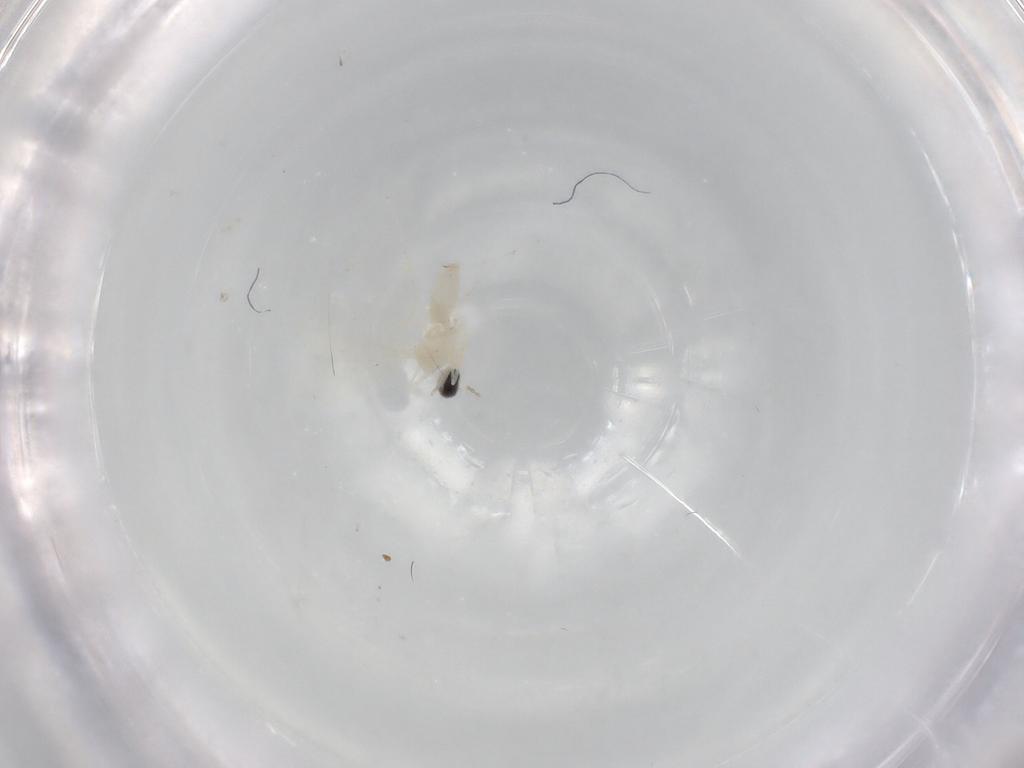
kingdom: Animalia
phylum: Arthropoda
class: Insecta
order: Diptera
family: Cecidomyiidae
